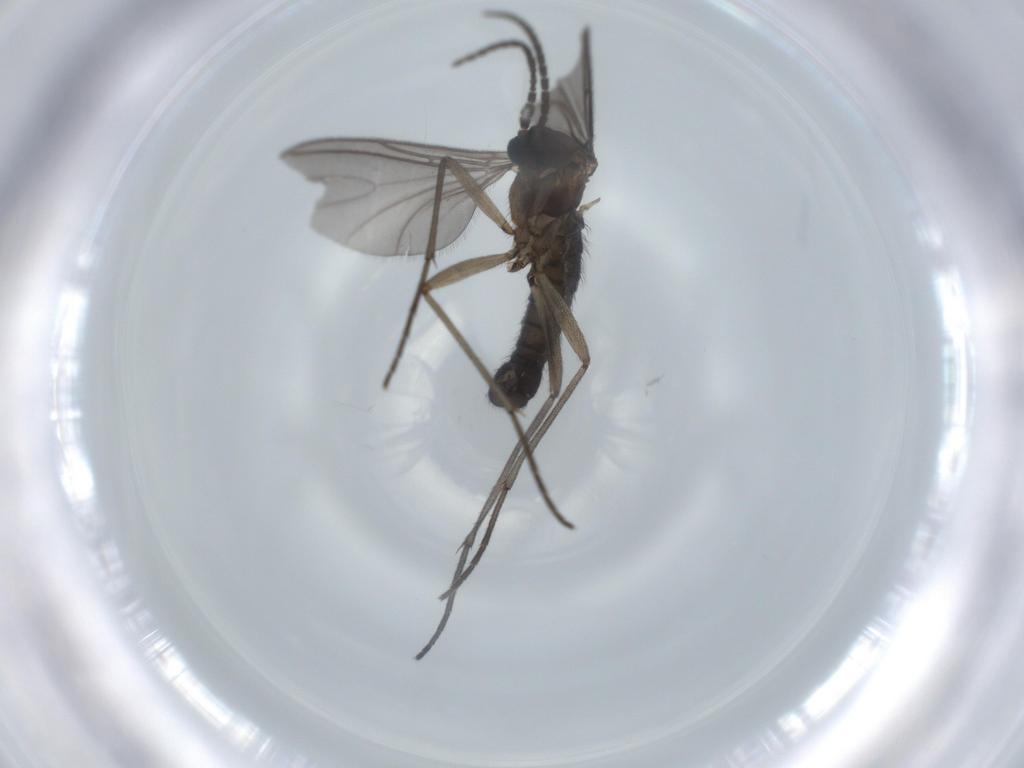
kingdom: Animalia
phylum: Arthropoda
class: Insecta
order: Diptera
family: Sciaridae
